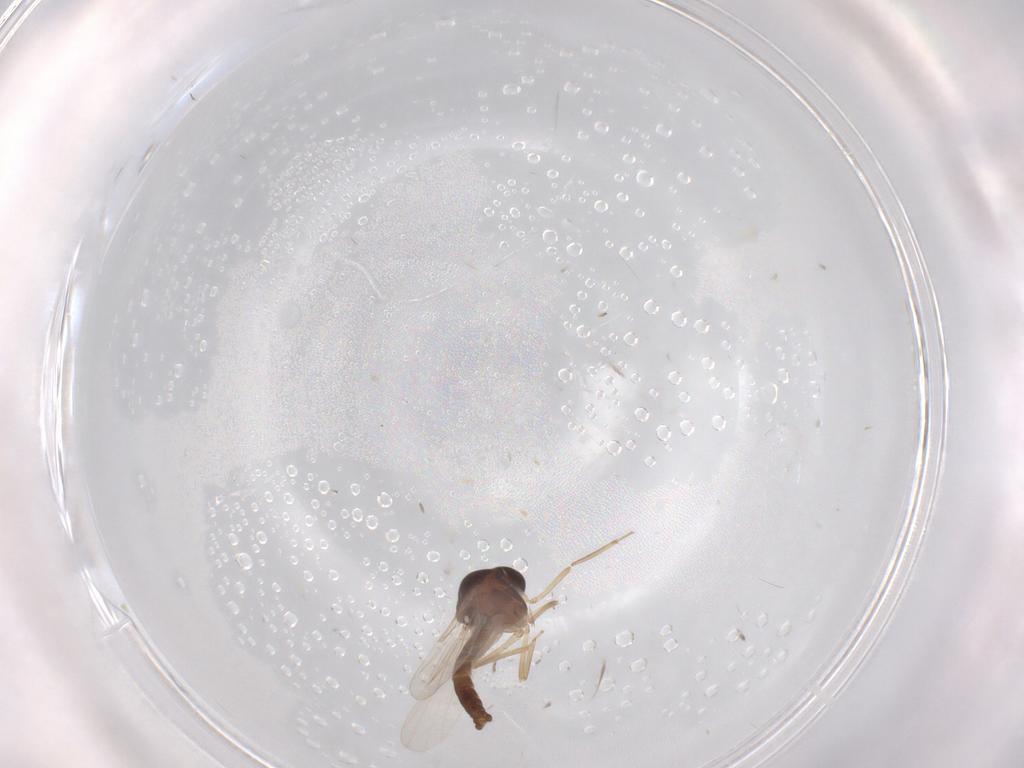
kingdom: Animalia
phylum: Arthropoda
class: Insecta
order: Diptera
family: Ceratopogonidae
